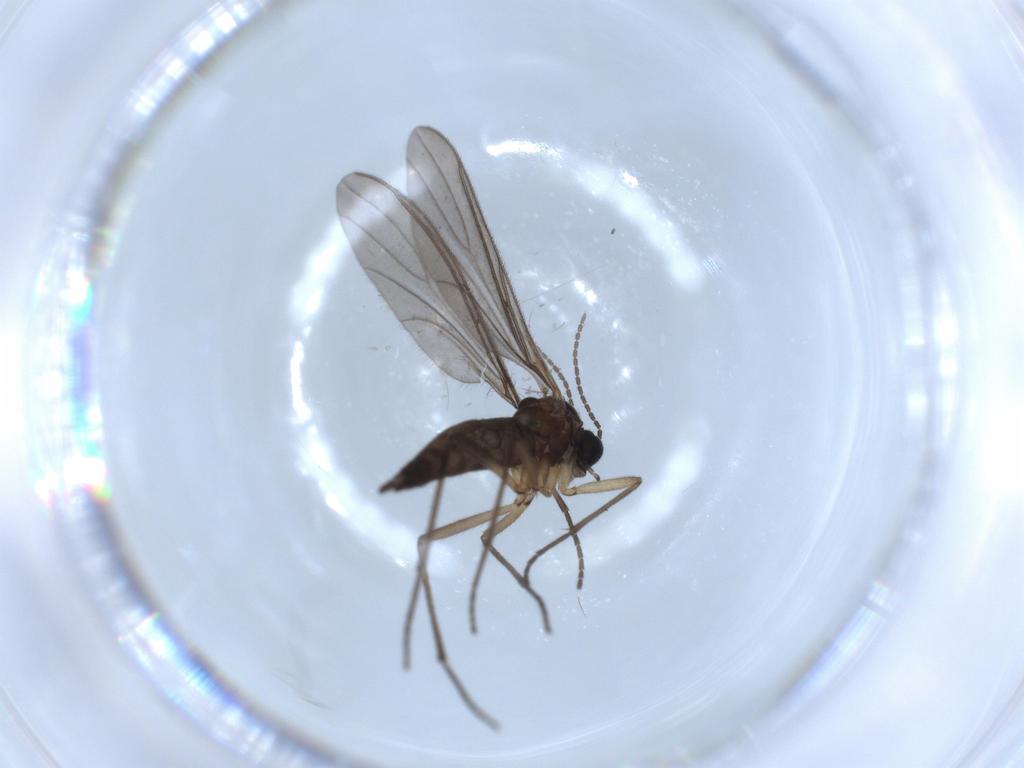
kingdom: Animalia
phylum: Arthropoda
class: Insecta
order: Diptera
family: Sciaridae
